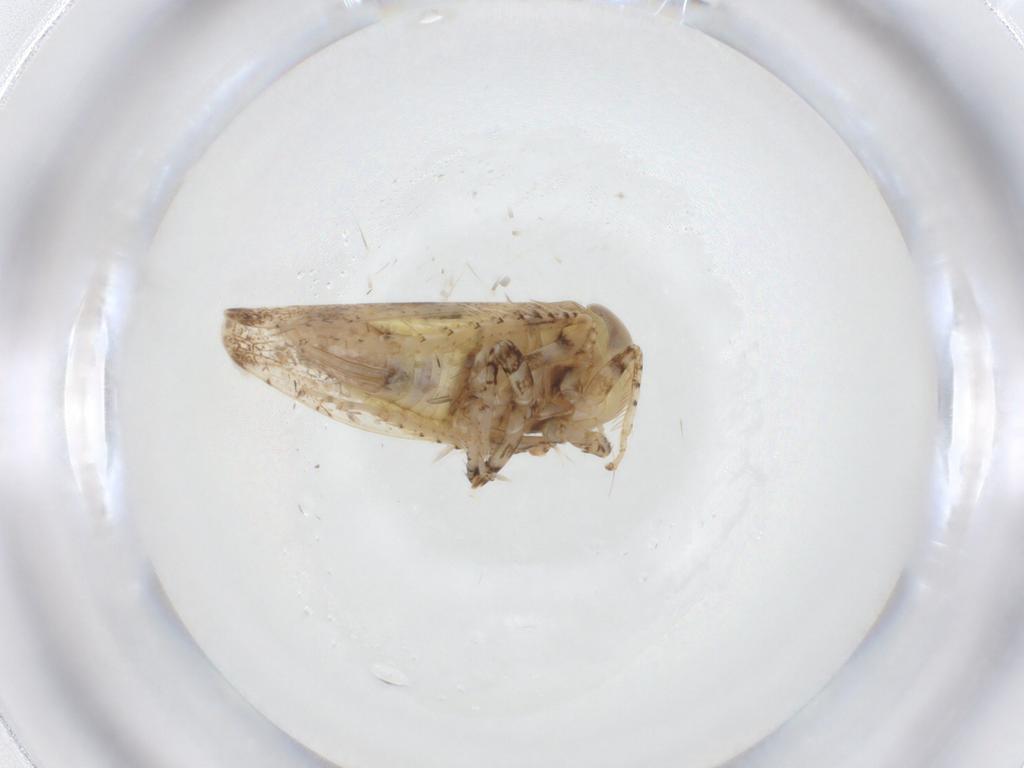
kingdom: Animalia
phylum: Arthropoda
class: Insecta
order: Hemiptera
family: Cicadellidae
